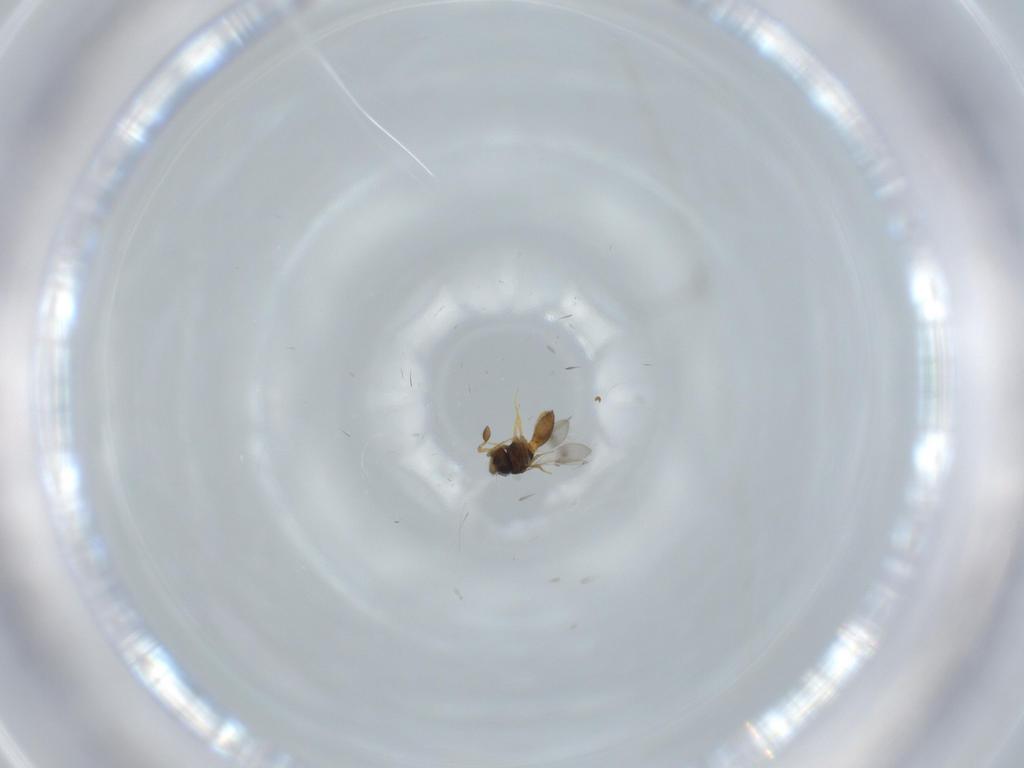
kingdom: Animalia
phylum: Arthropoda
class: Insecta
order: Hymenoptera
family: Scelionidae
